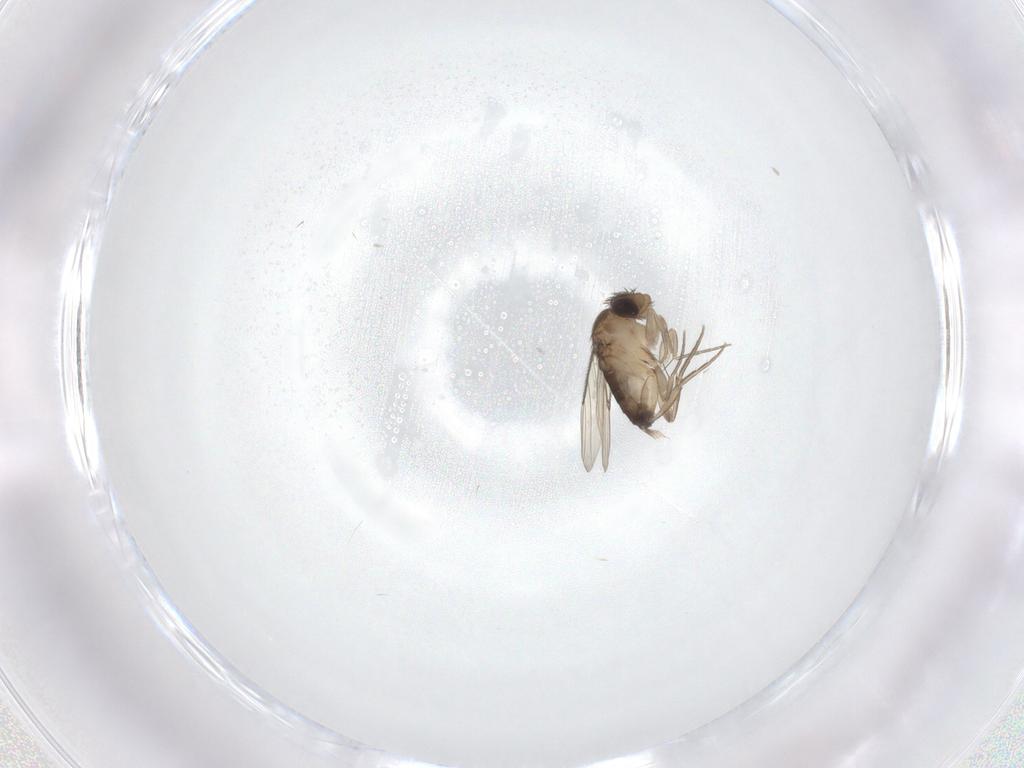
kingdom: Animalia
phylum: Arthropoda
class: Insecta
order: Diptera
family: Phoridae
